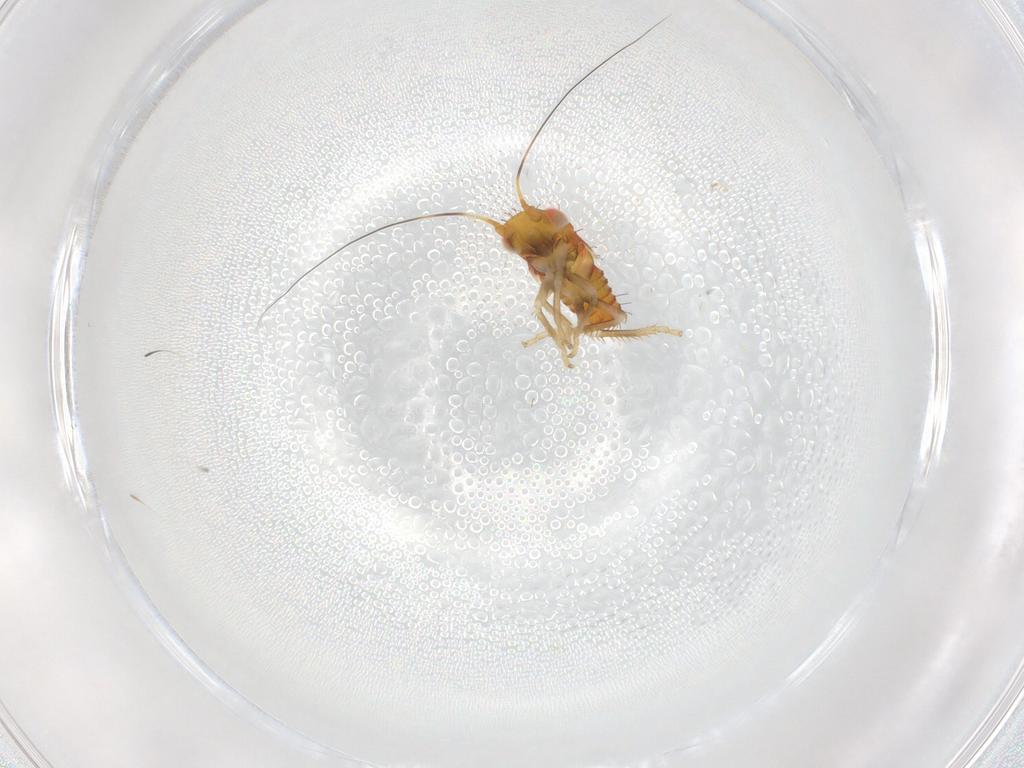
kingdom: Animalia
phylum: Arthropoda
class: Insecta
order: Hemiptera
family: Cicadellidae
